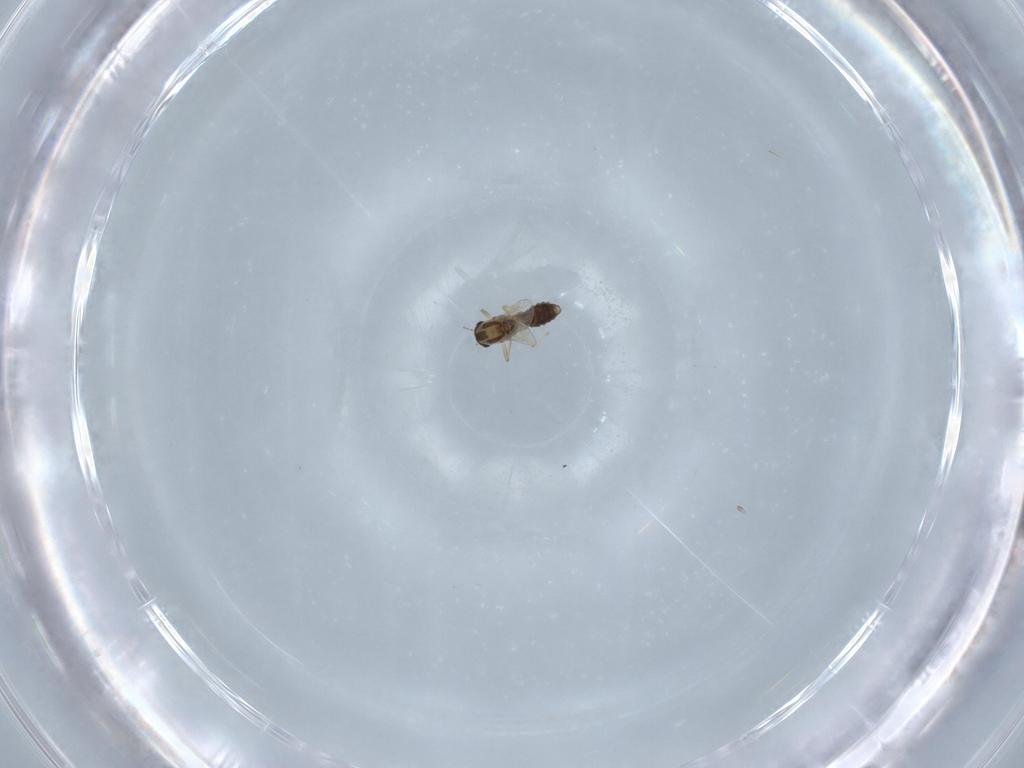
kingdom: Animalia
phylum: Arthropoda
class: Insecta
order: Diptera
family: Chironomidae
